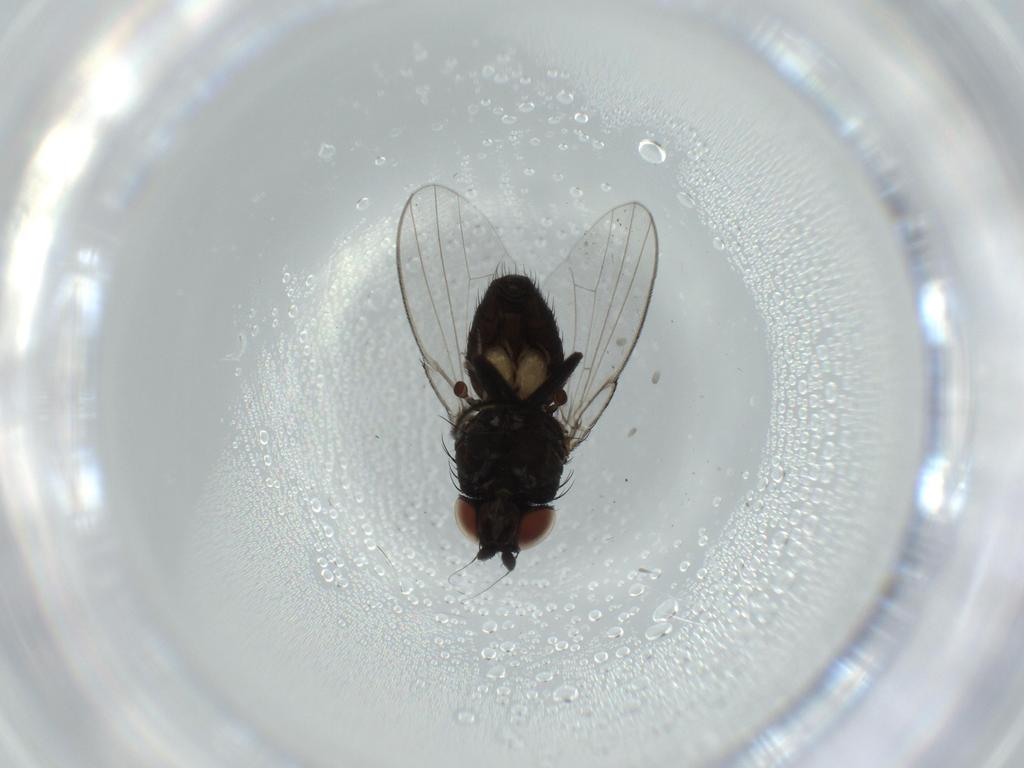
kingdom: Animalia
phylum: Arthropoda
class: Insecta
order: Diptera
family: Milichiidae
